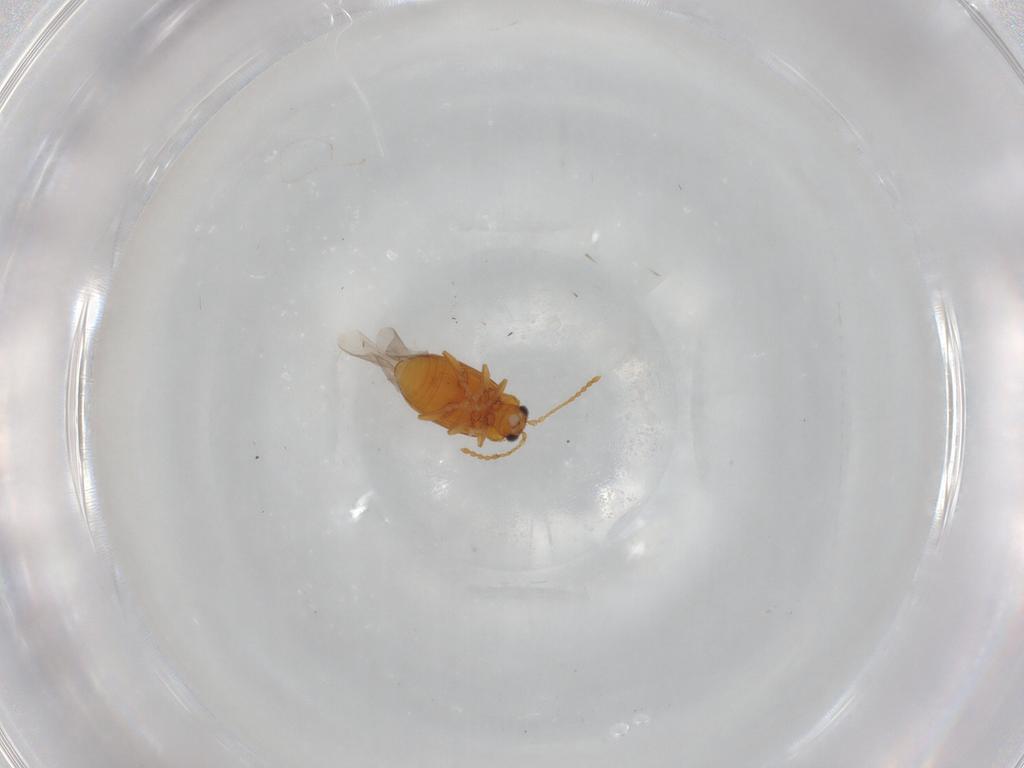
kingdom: Animalia
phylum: Arthropoda
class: Insecta
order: Coleoptera
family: Chrysomelidae
